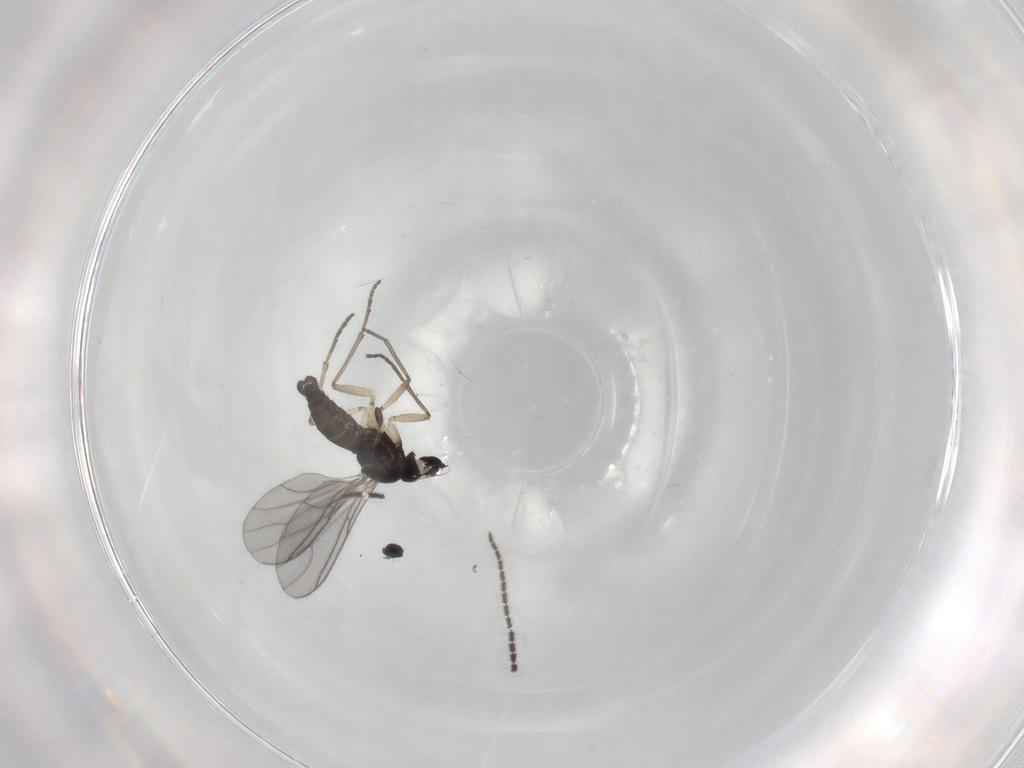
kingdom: Animalia
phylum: Arthropoda
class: Insecta
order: Diptera
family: Sciaridae
